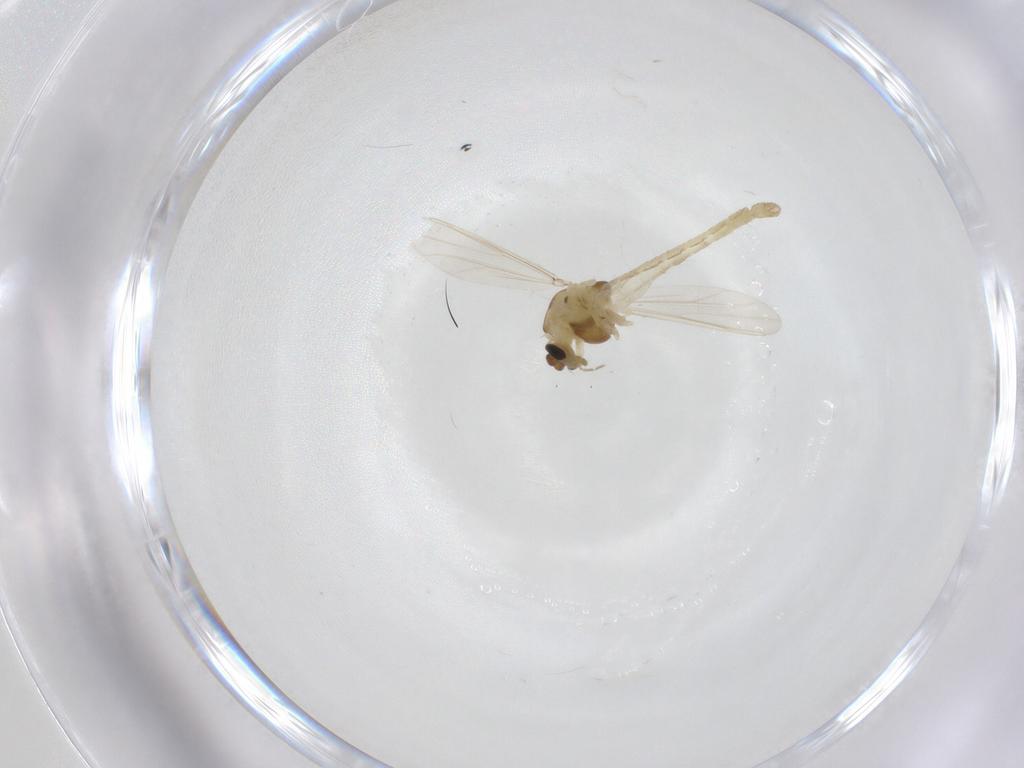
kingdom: Animalia
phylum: Arthropoda
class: Insecta
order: Diptera
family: Chironomidae
